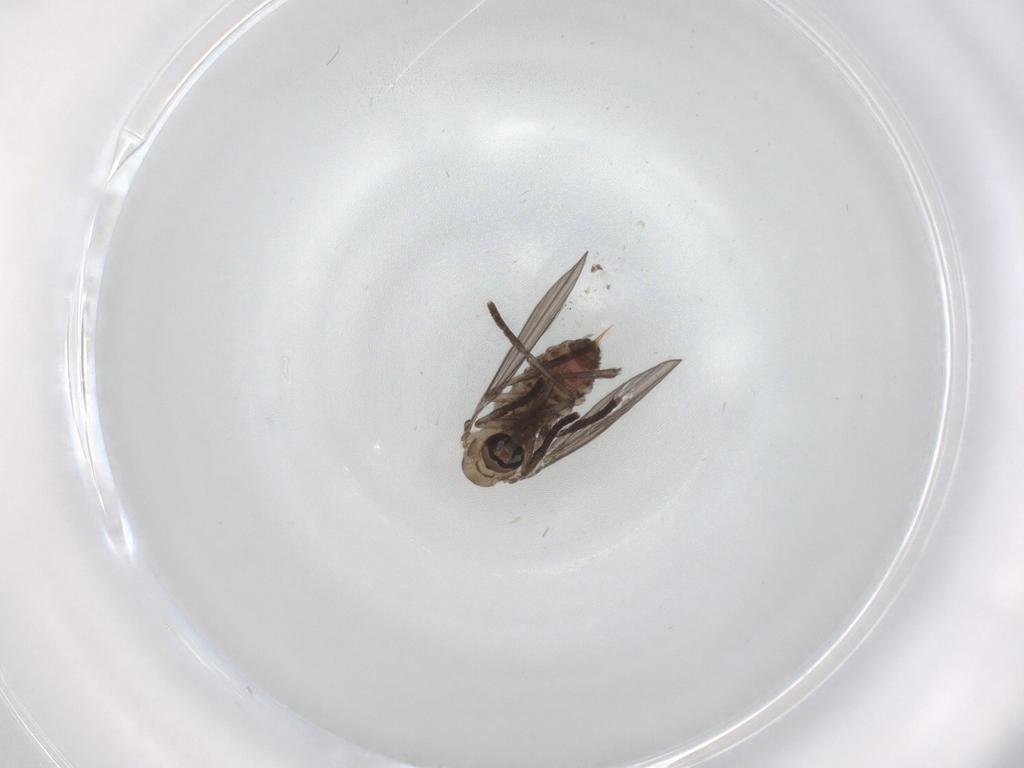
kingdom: Animalia
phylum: Arthropoda
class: Insecta
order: Diptera
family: Psychodidae
